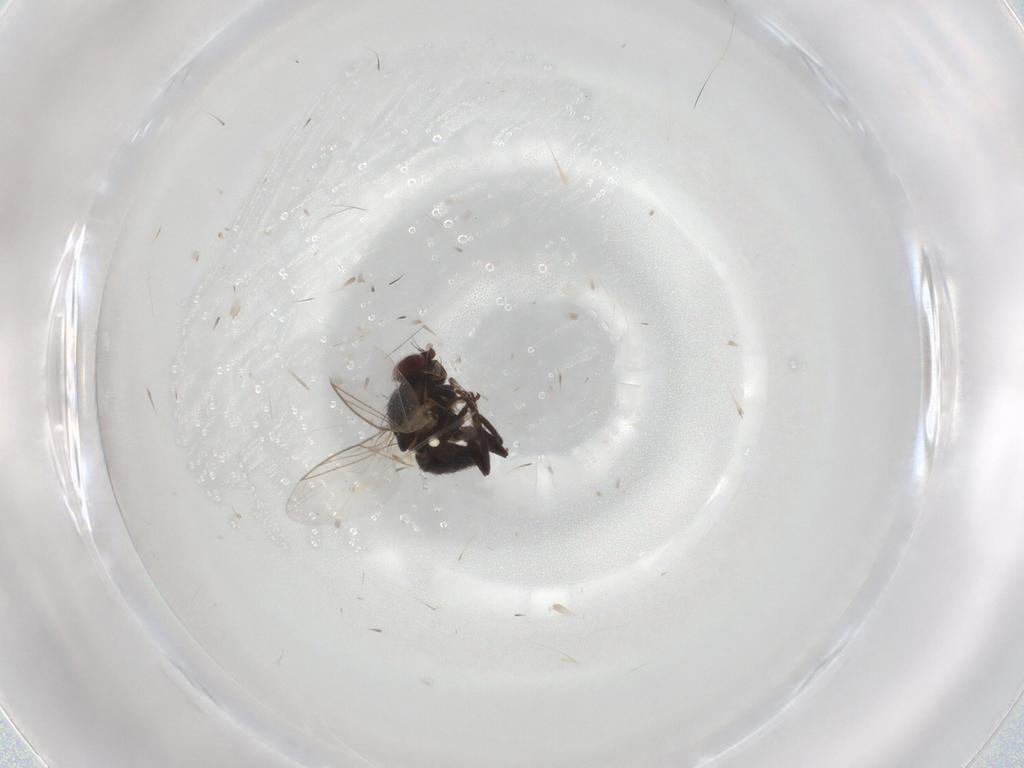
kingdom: Animalia
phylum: Arthropoda
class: Insecta
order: Diptera
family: Agromyzidae
